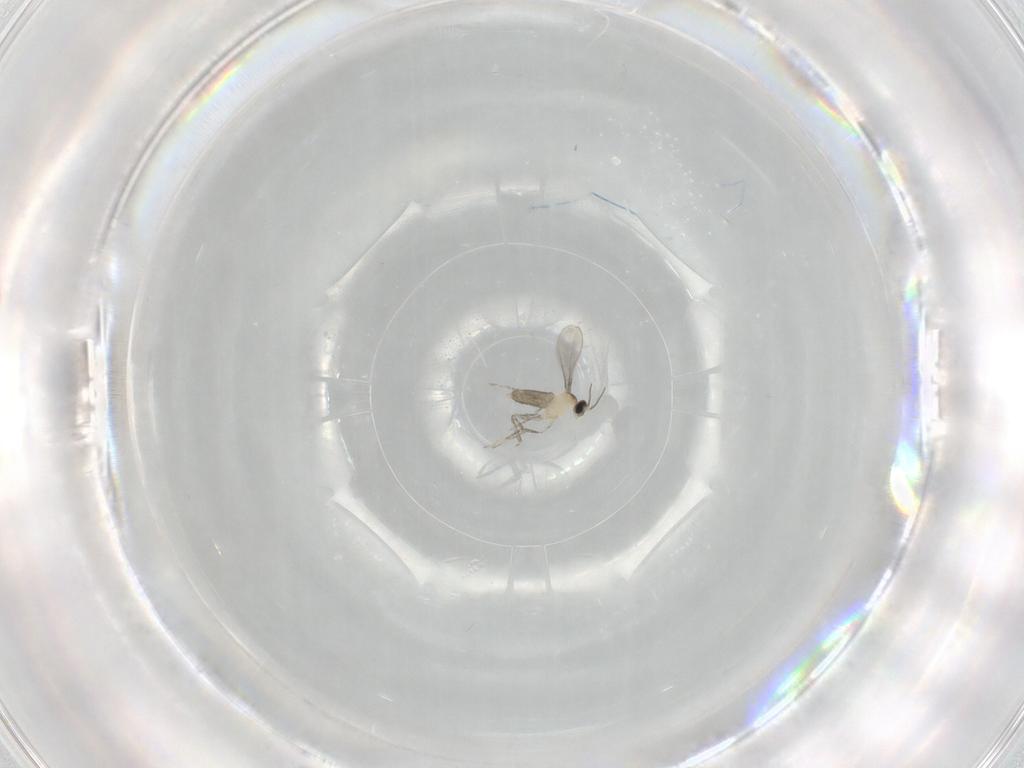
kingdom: Animalia
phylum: Arthropoda
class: Insecta
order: Diptera
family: Cecidomyiidae
